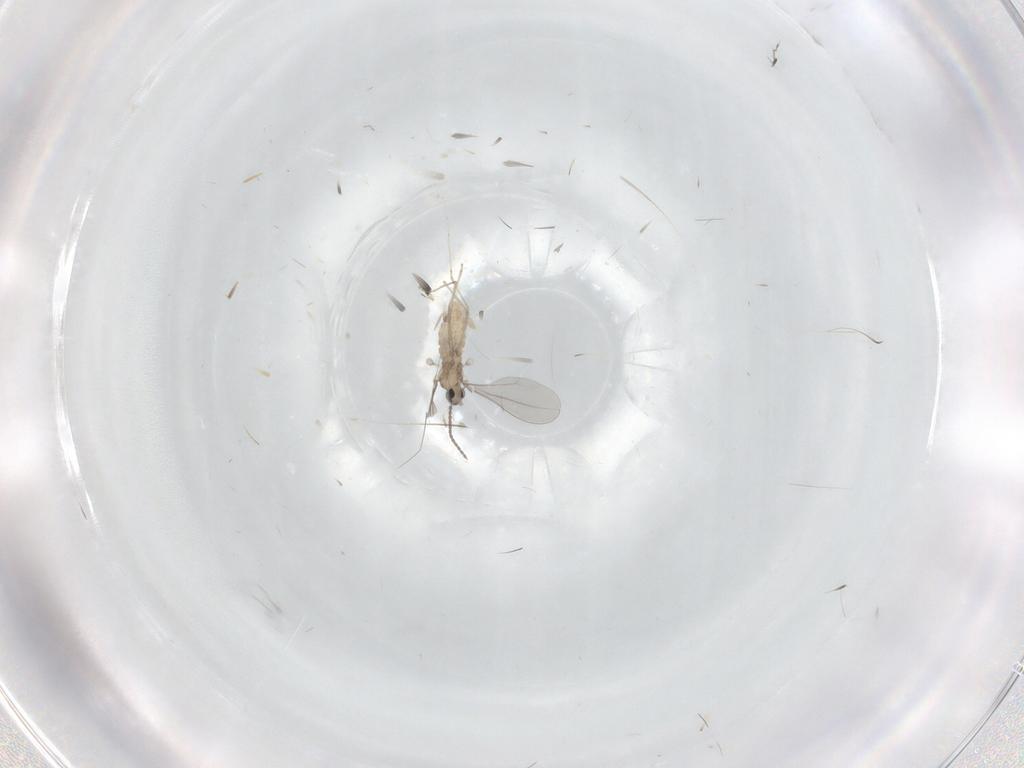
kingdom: Animalia
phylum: Arthropoda
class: Insecta
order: Diptera
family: Cecidomyiidae
